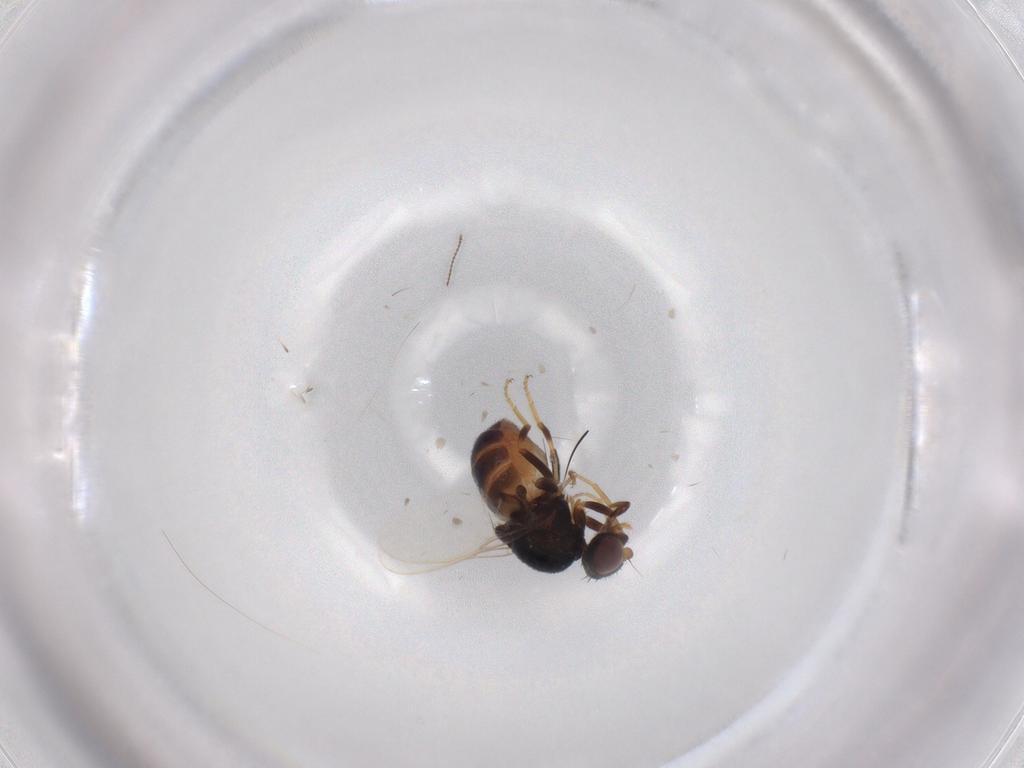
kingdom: Animalia
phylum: Arthropoda
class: Insecta
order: Diptera
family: Chloropidae
